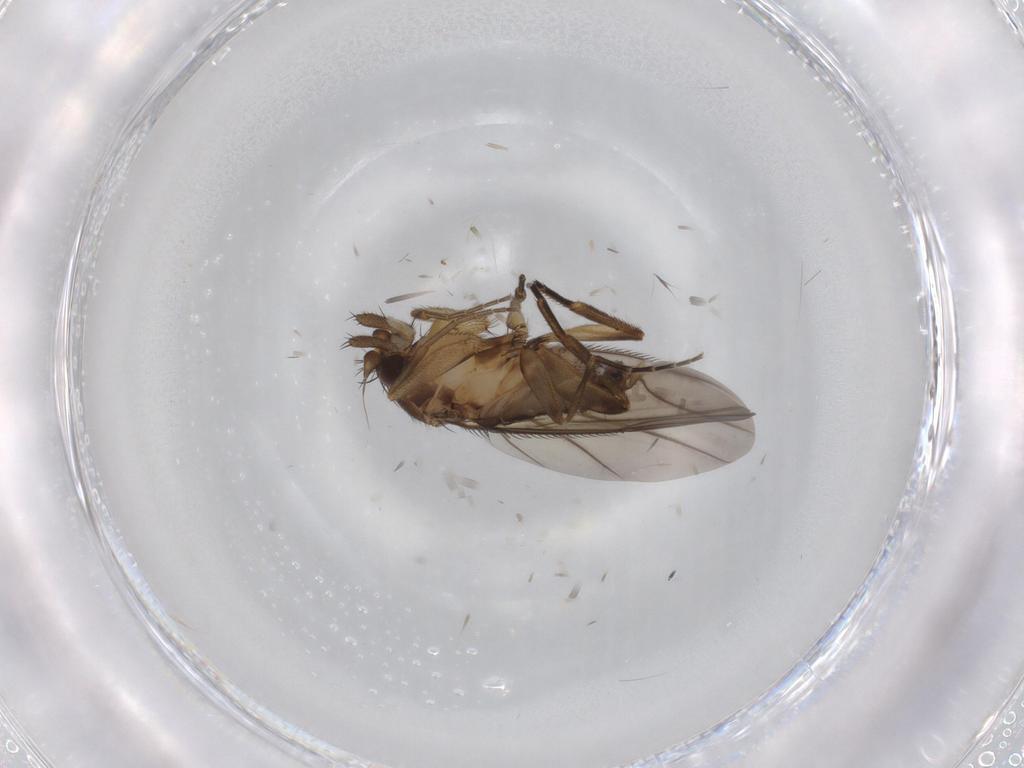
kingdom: Animalia
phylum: Arthropoda
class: Insecta
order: Diptera
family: Phoridae
